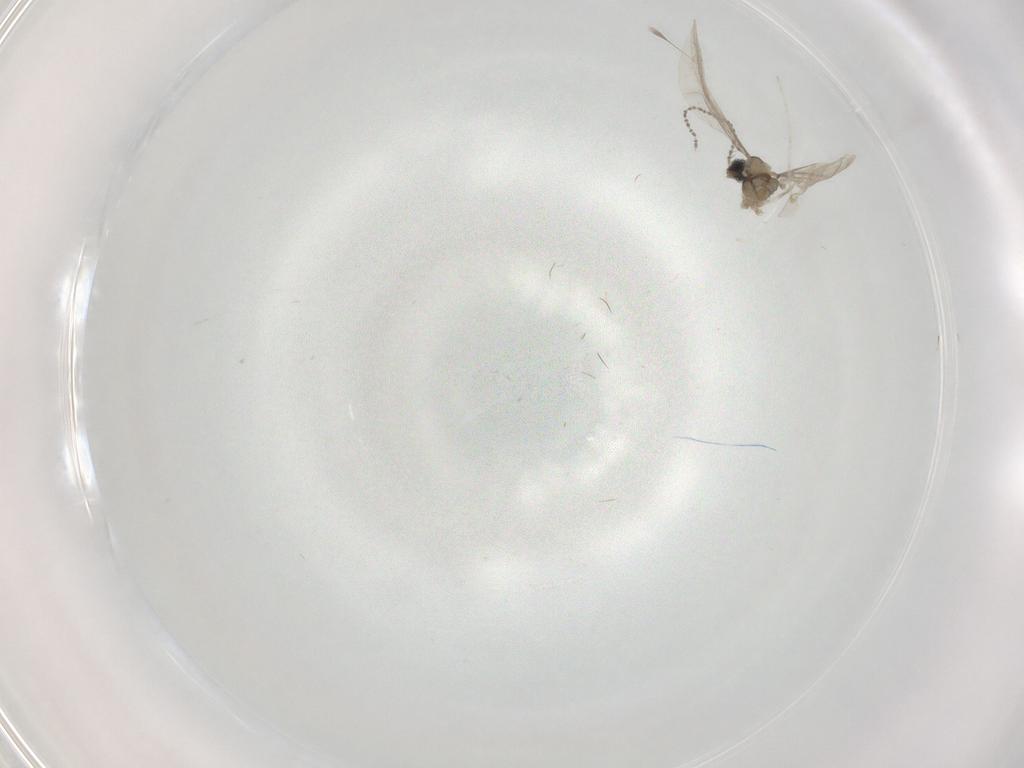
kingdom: Animalia
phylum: Arthropoda
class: Insecta
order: Diptera
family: Cecidomyiidae
